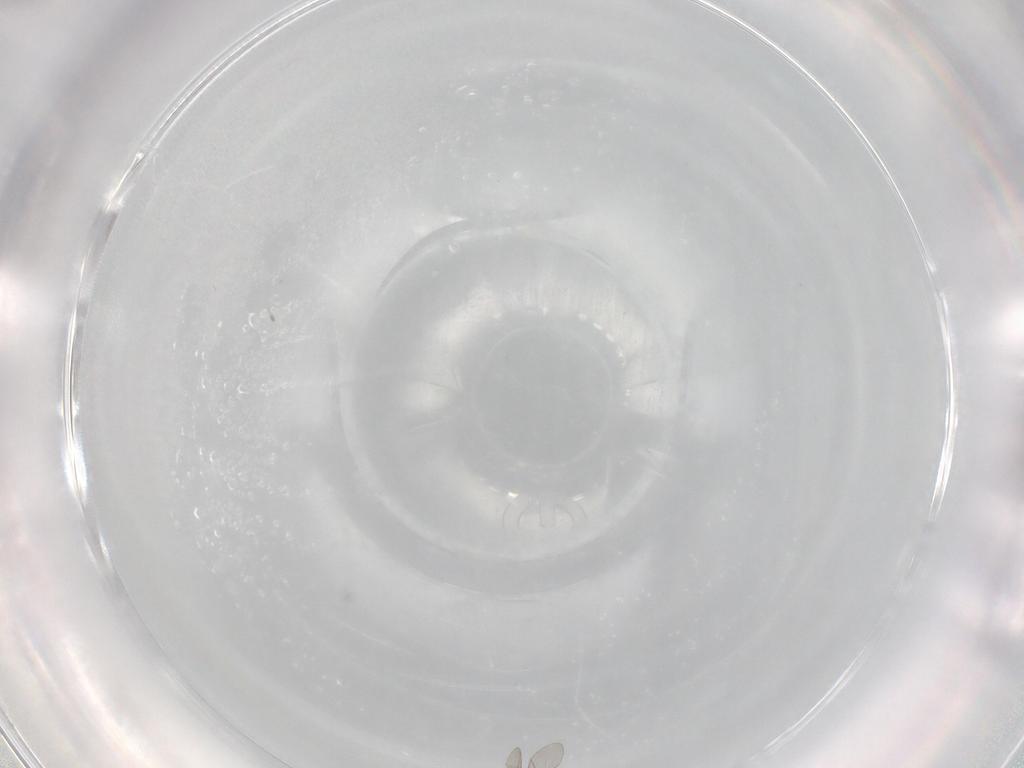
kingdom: Animalia
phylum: Arthropoda
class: Insecta
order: Diptera
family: Cecidomyiidae
